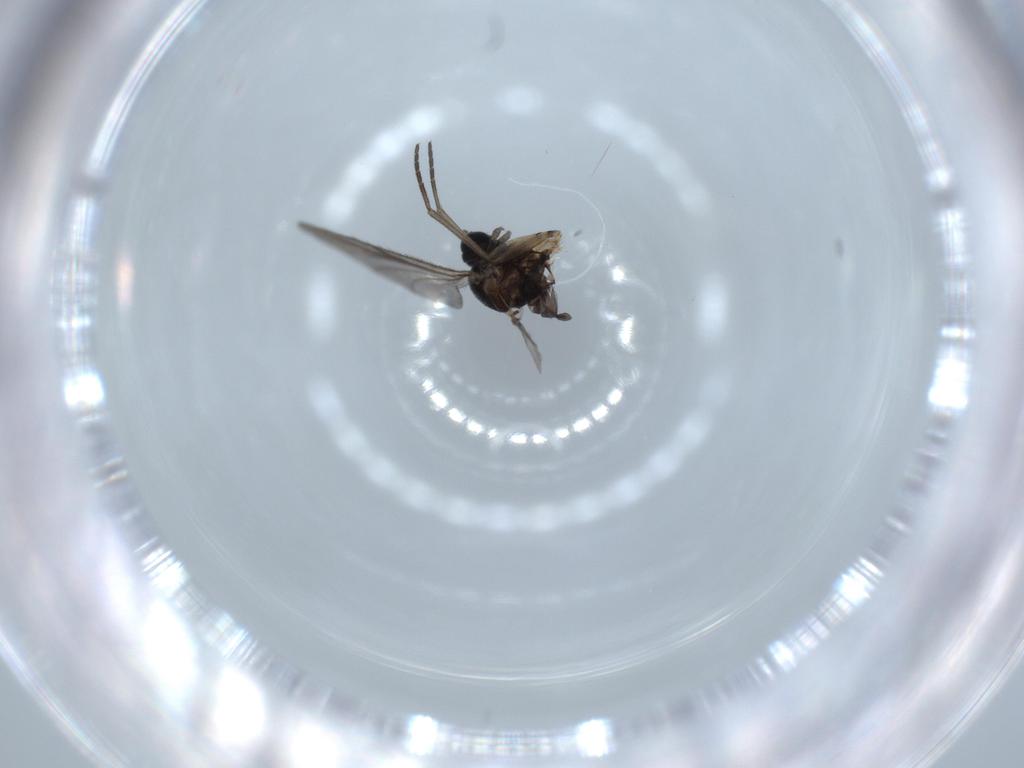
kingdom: Animalia
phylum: Arthropoda
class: Insecta
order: Diptera
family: Sciaridae
